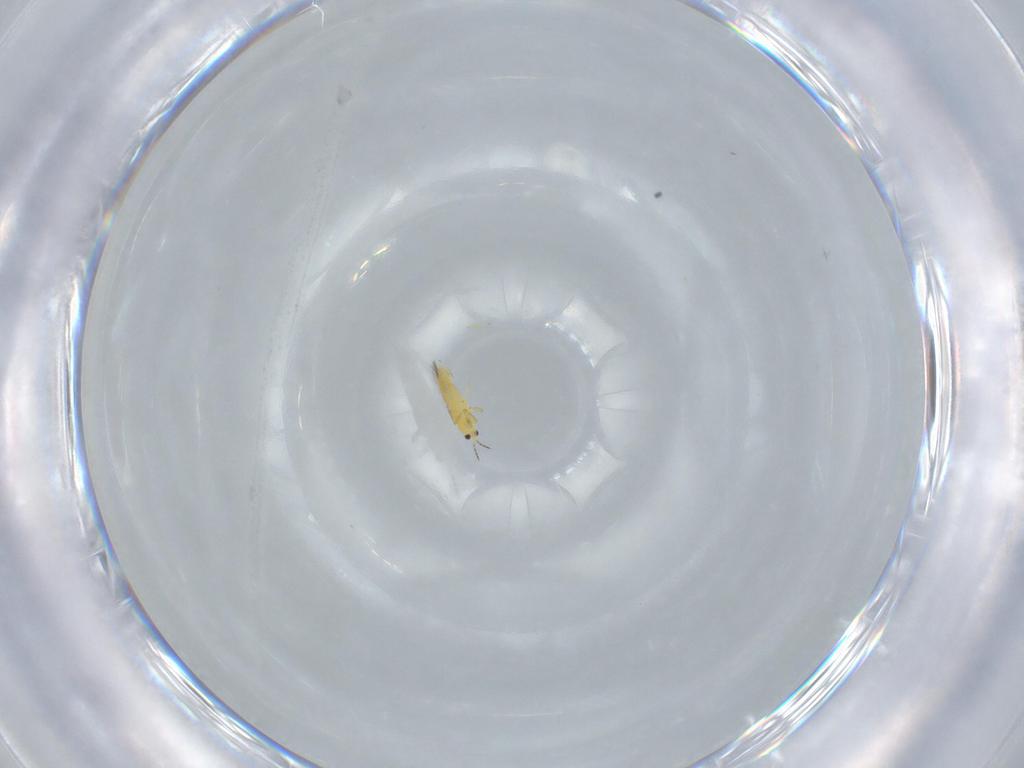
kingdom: Animalia
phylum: Arthropoda
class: Insecta
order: Thysanoptera
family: Thripidae
